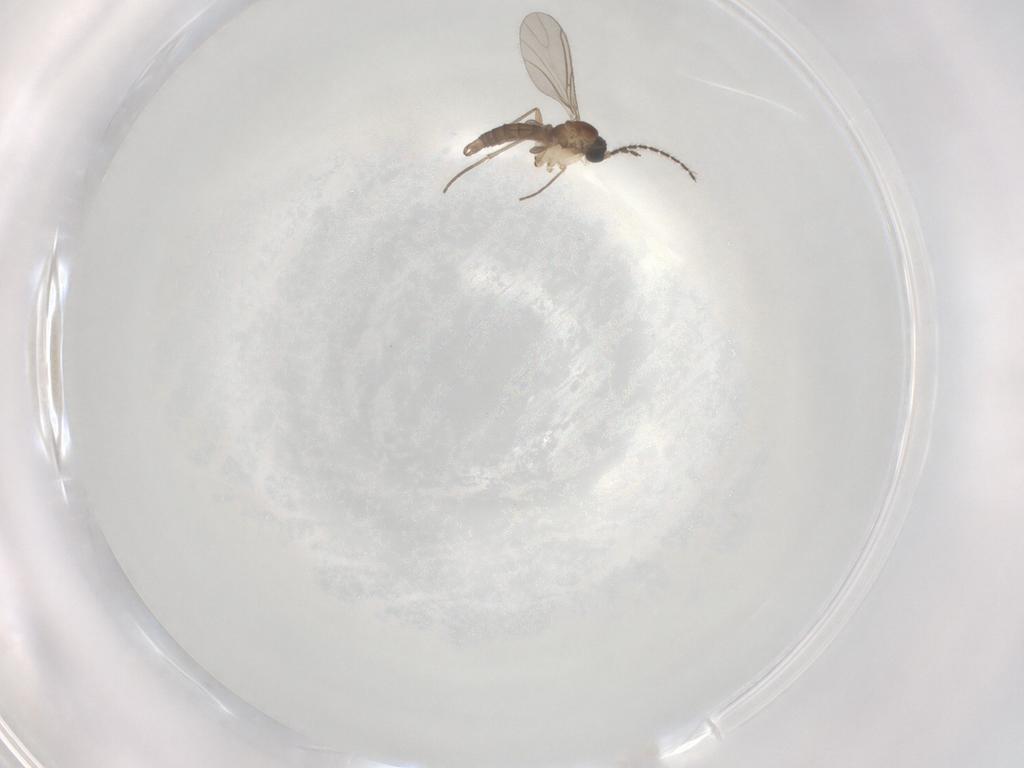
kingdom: Animalia
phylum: Arthropoda
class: Insecta
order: Diptera
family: Sciaridae
